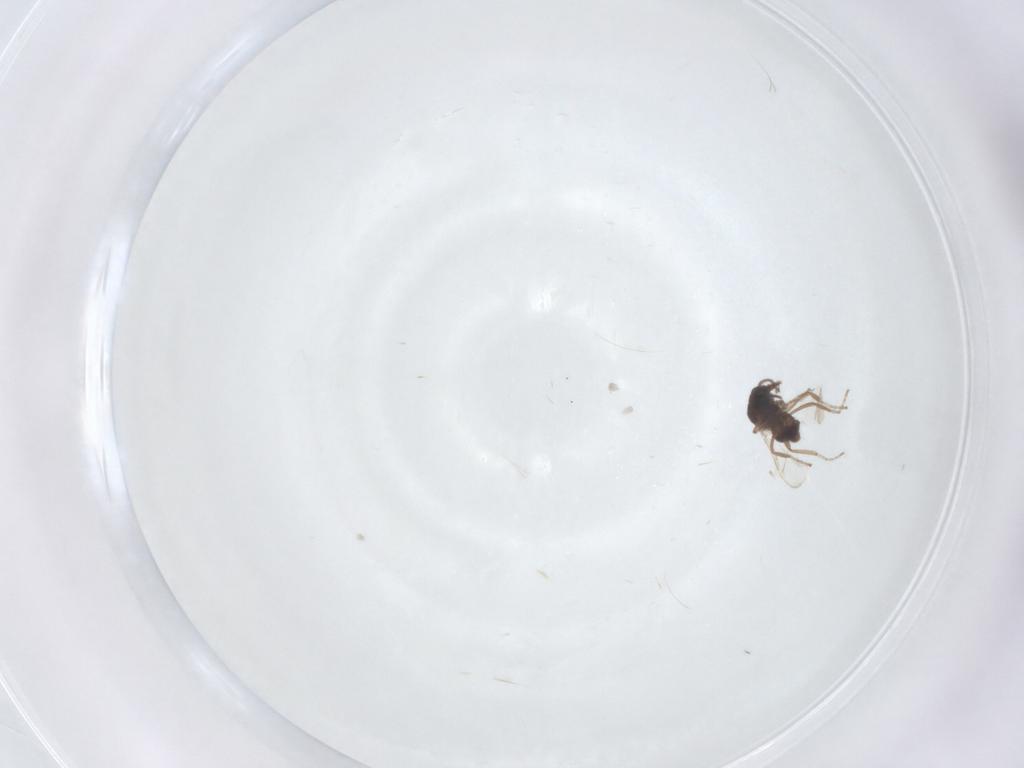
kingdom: Animalia
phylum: Arthropoda
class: Insecta
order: Diptera
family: Ceratopogonidae
